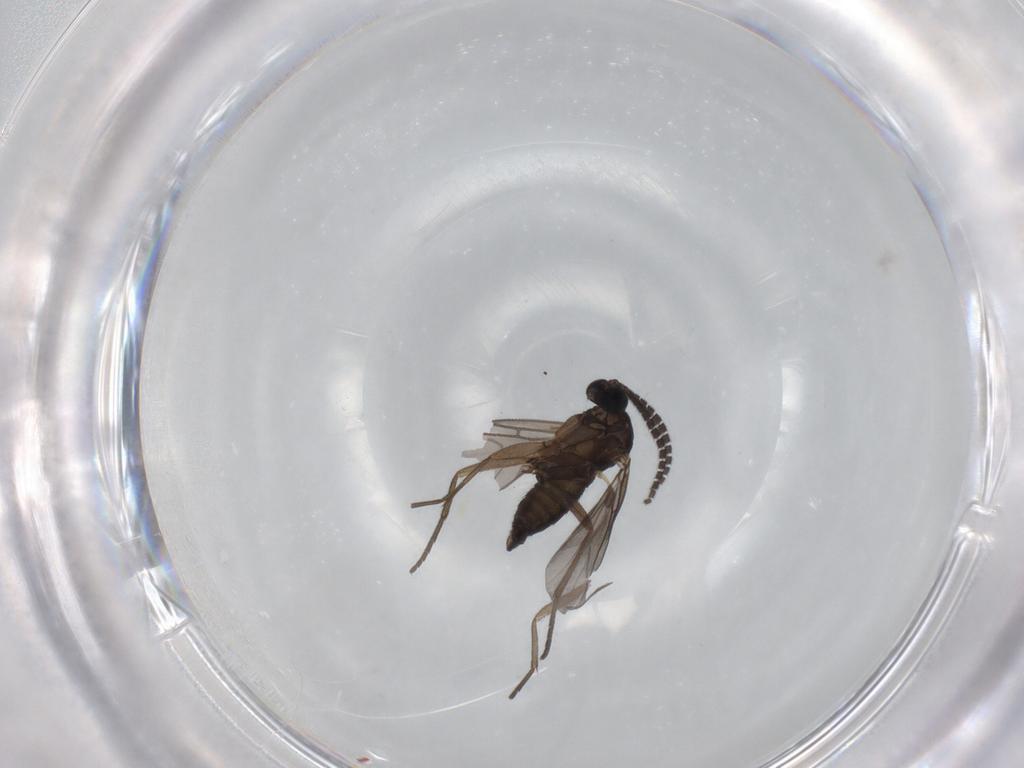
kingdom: Animalia
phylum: Arthropoda
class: Insecta
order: Diptera
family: Sciaridae
